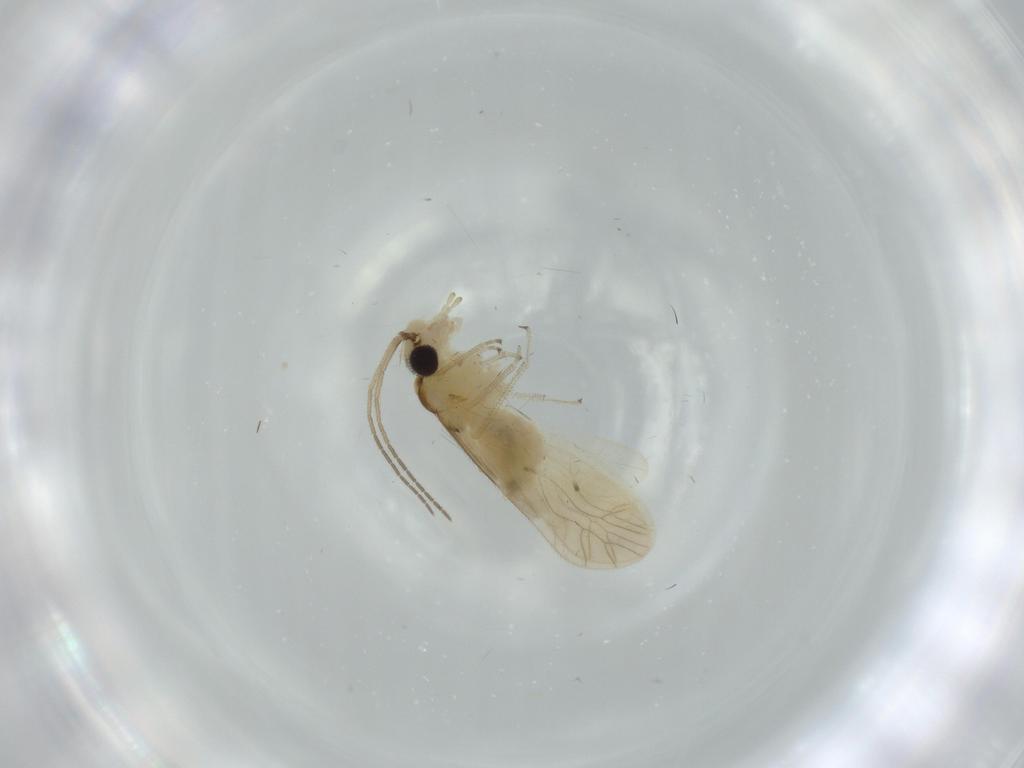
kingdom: Animalia
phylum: Arthropoda
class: Insecta
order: Psocodea
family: Caeciliusidae
